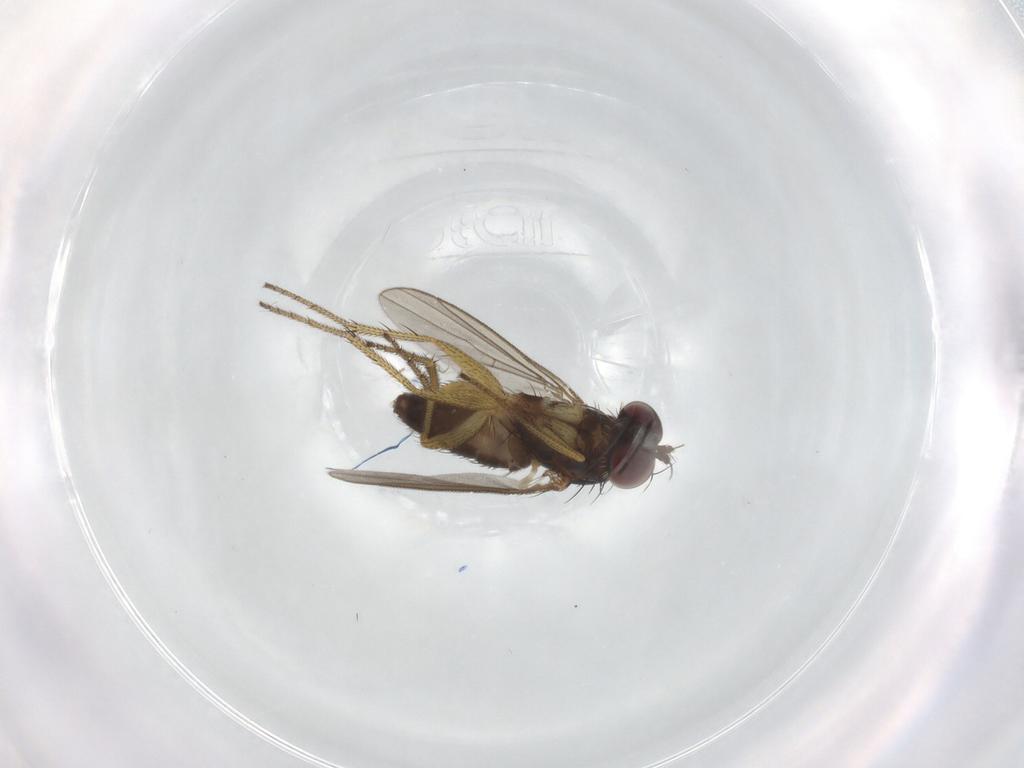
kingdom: Animalia
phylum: Arthropoda
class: Insecta
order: Diptera
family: Dolichopodidae
